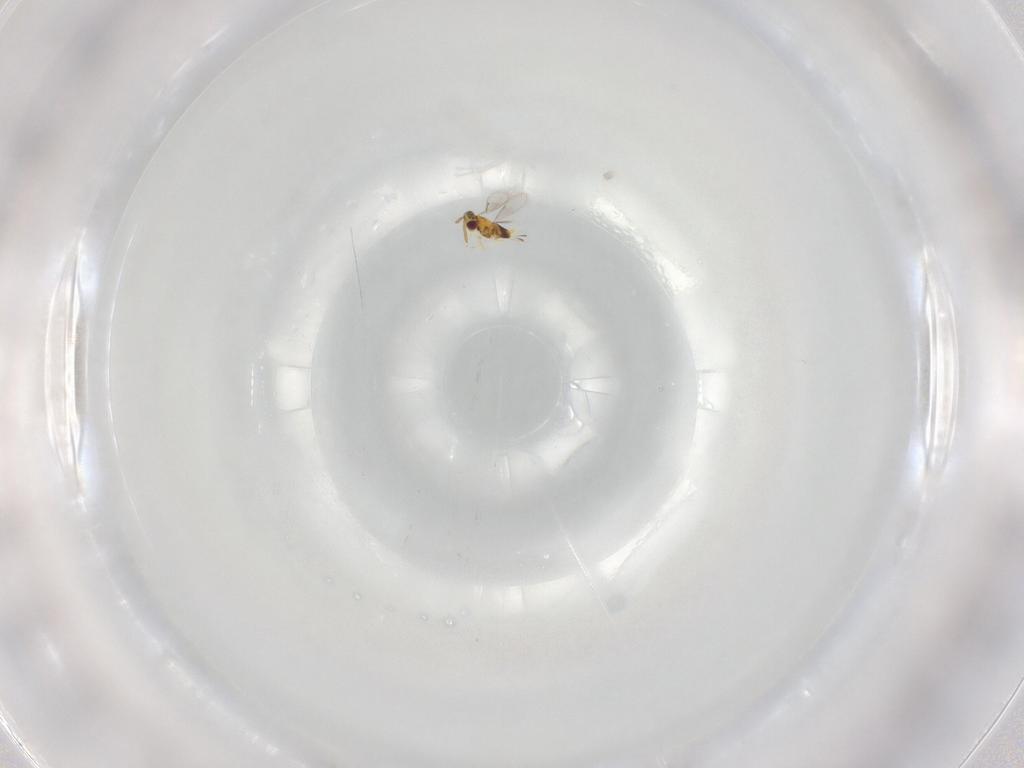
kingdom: Animalia
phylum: Arthropoda
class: Insecta
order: Hymenoptera
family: Aphelinidae
